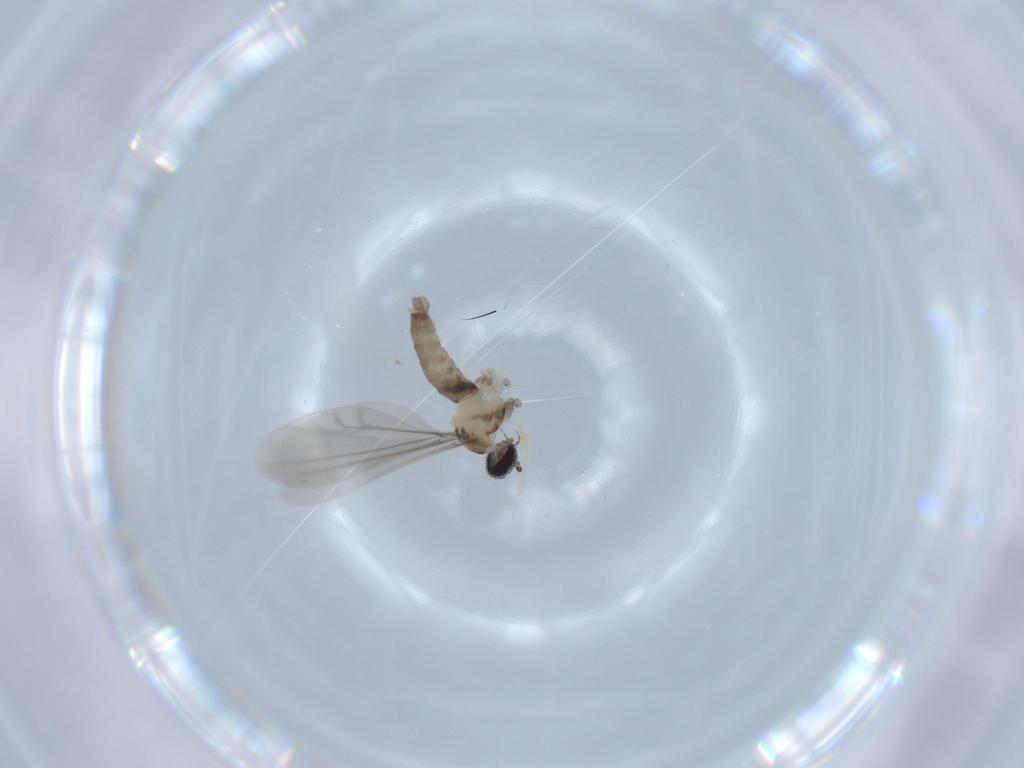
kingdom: Animalia
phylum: Arthropoda
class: Insecta
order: Diptera
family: Cecidomyiidae
